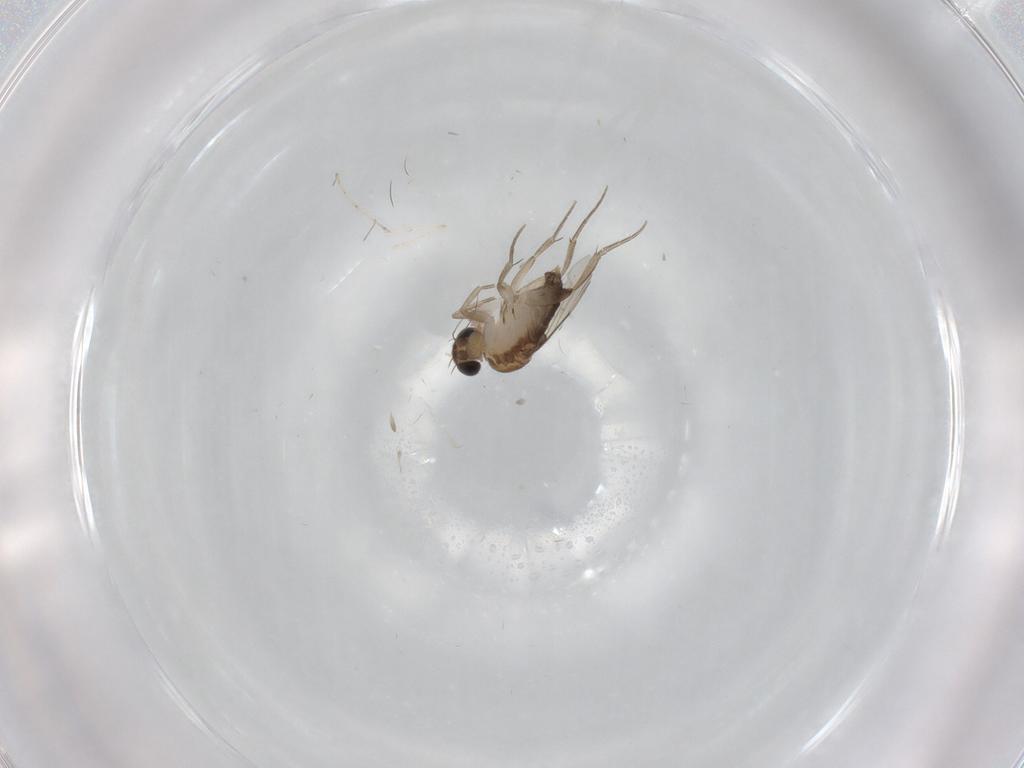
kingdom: Animalia
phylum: Arthropoda
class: Insecta
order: Diptera
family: Phoridae
